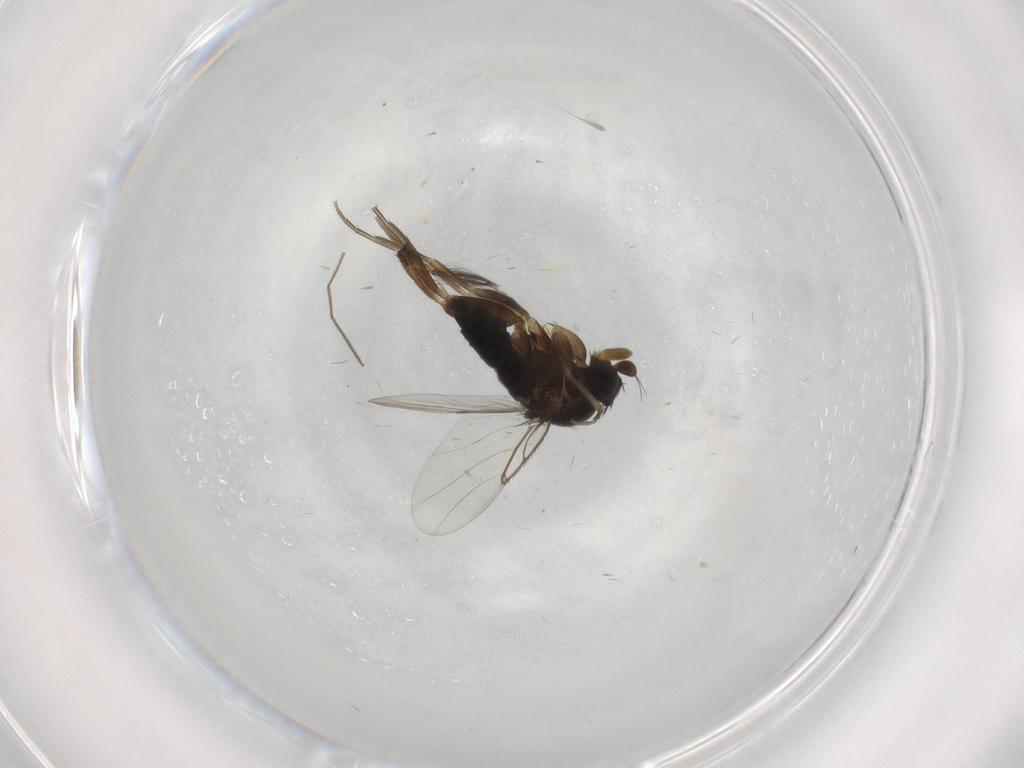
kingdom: Animalia
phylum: Arthropoda
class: Insecta
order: Diptera
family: Phoridae
